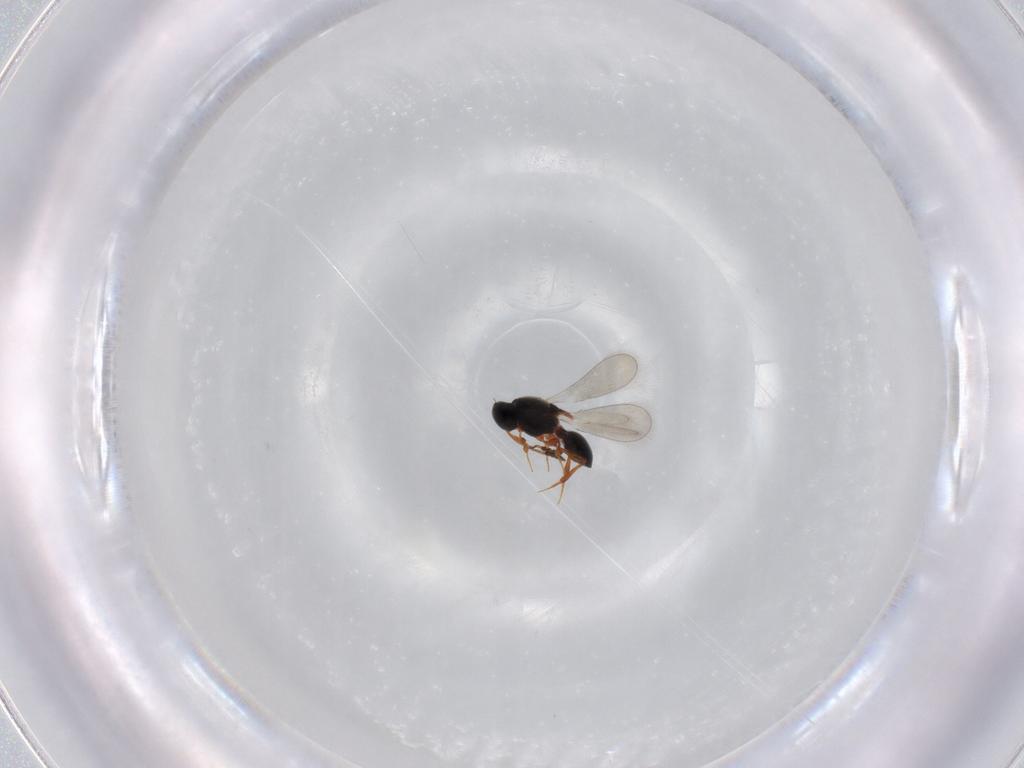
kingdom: Animalia
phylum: Arthropoda
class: Insecta
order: Hymenoptera
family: Platygastridae
